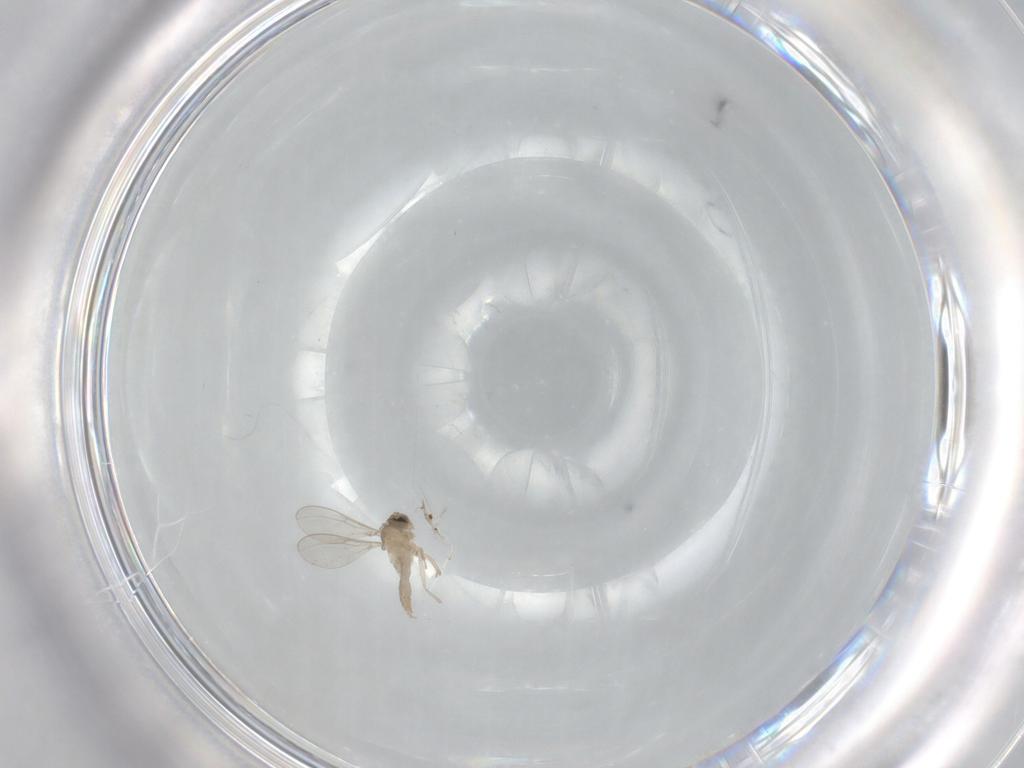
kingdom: Animalia
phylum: Arthropoda
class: Insecta
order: Diptera
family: Cecidomyiidae
